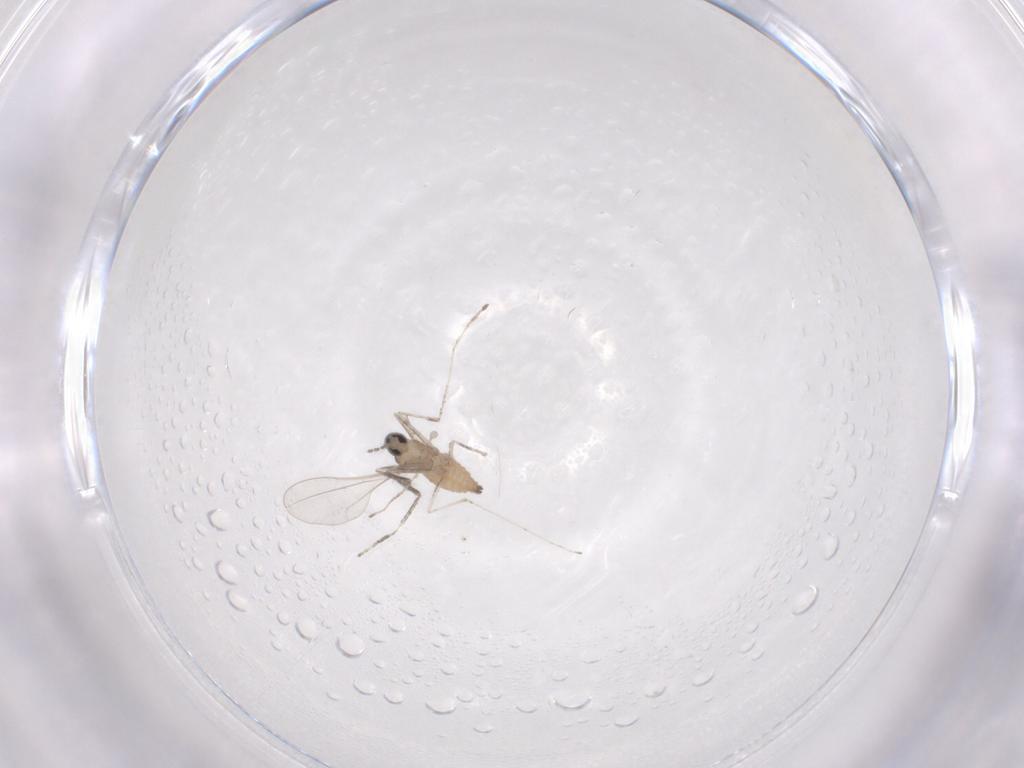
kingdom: Animalia
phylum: Arthropoda
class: Insecta
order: Diptera
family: Cecidomyiidae
